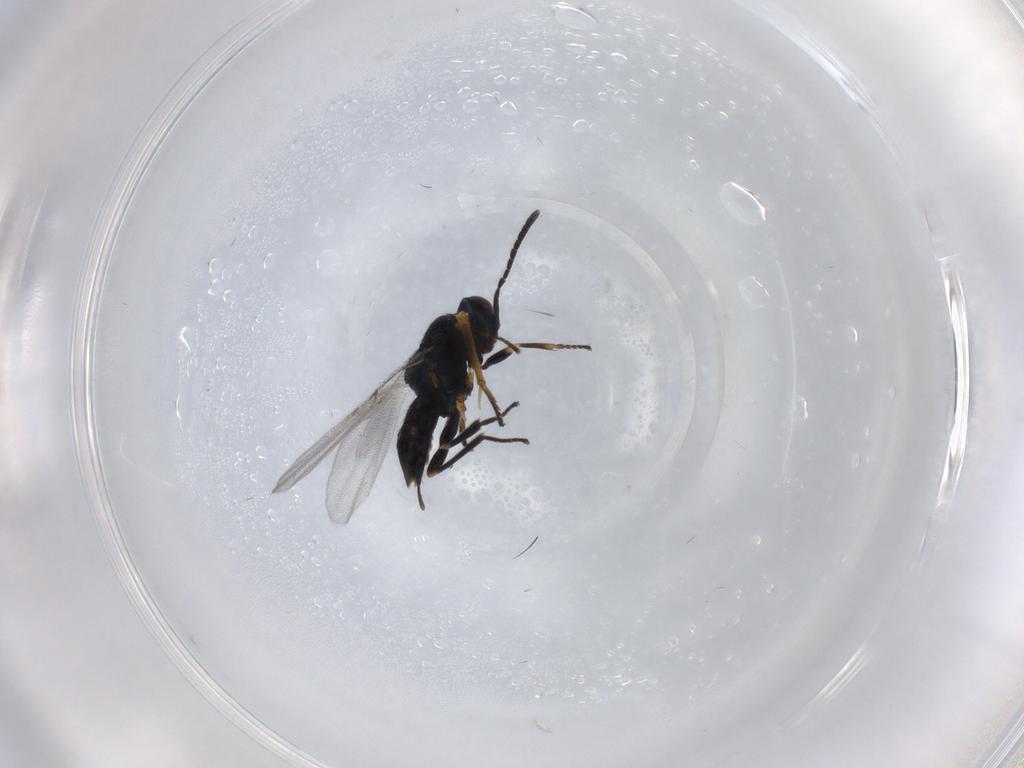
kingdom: Animalia
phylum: Arthropoda
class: Insecta
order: Diptera
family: Mycetophilidae
